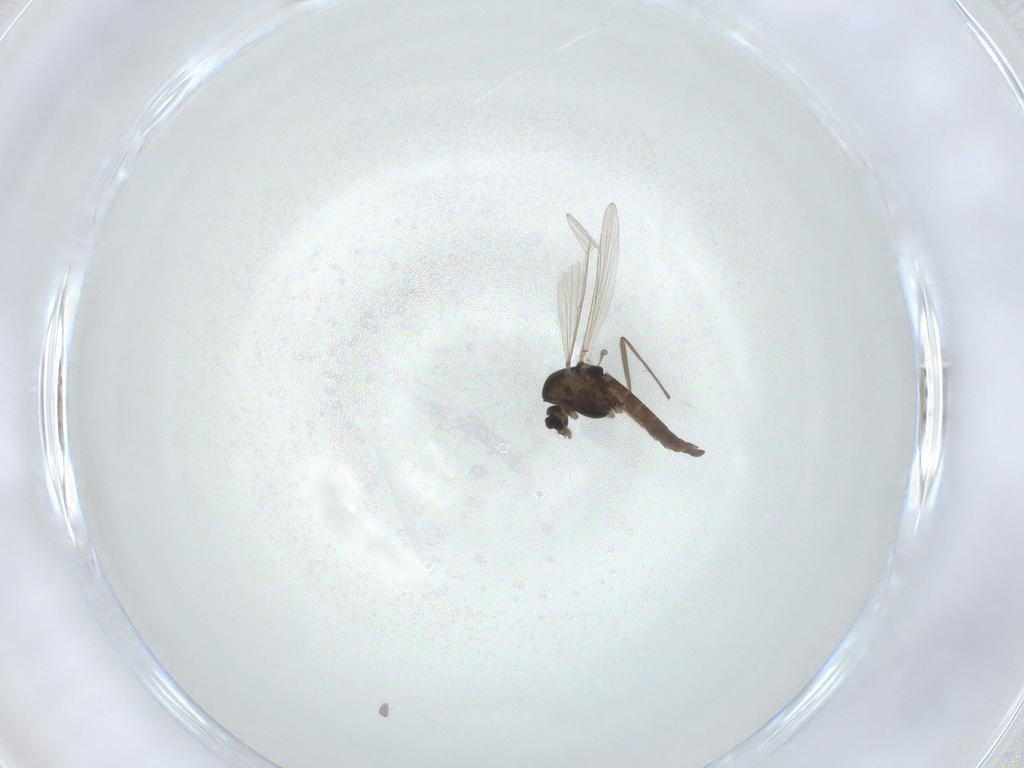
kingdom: Animalia
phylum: Arthropoda
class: Insecta
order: Diptera
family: Chironomidae
